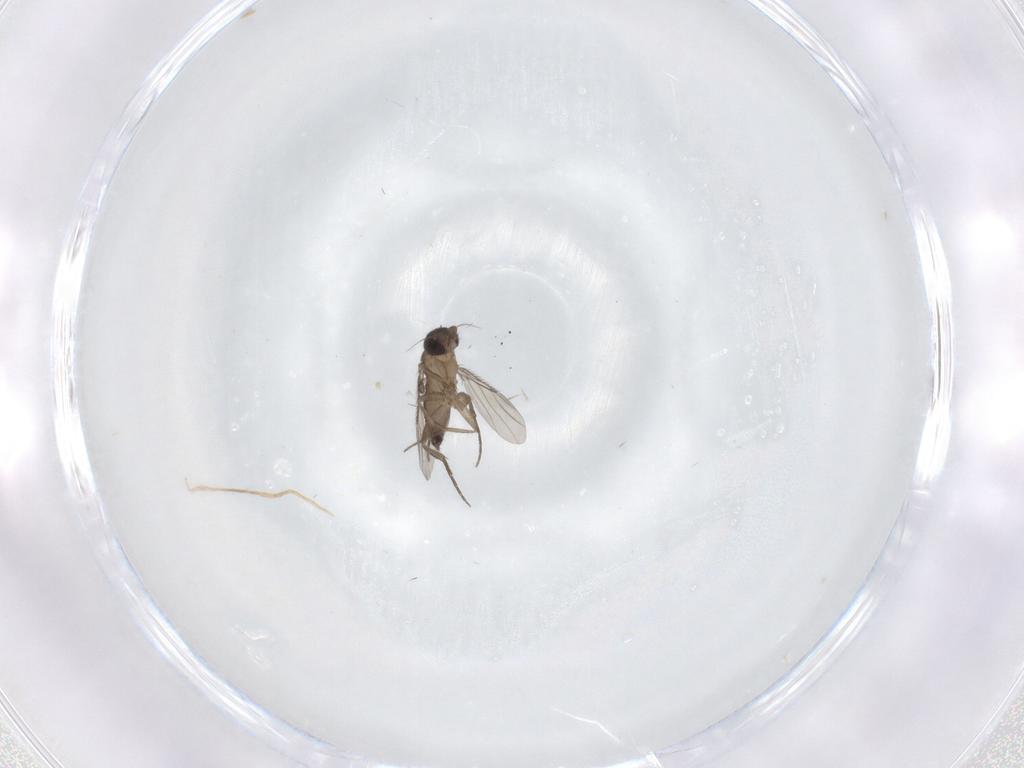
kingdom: Animalia
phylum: Arthropoda
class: Insecta
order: Diptera
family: Phoridae
